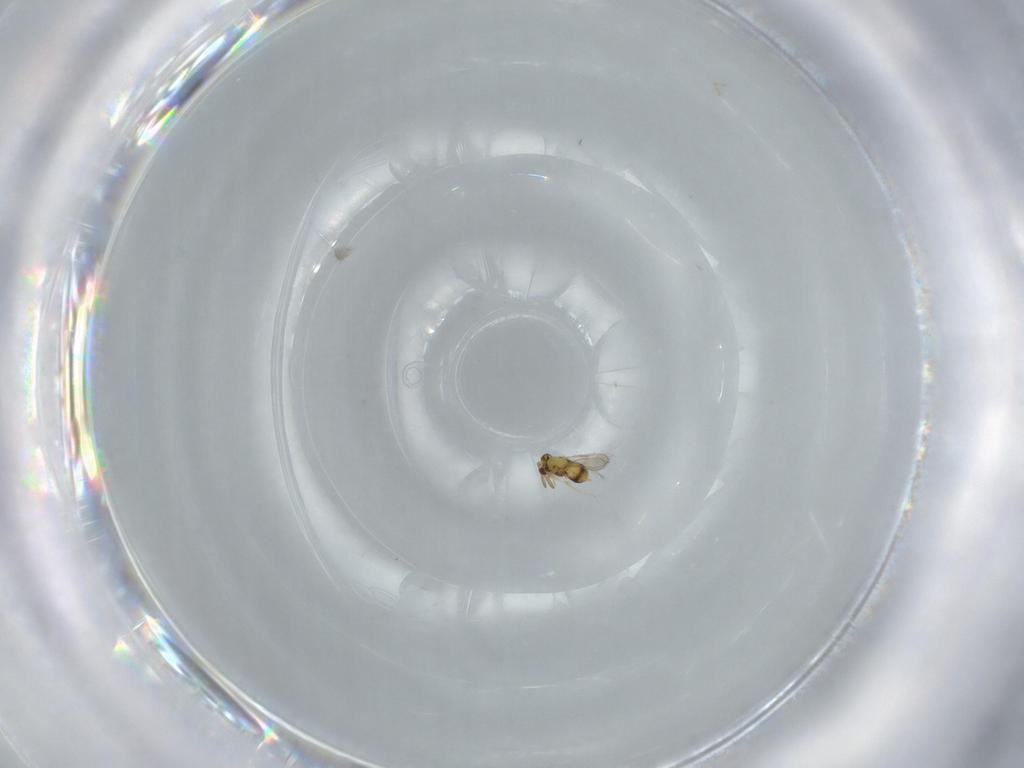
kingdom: Animalia
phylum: Arthropoda
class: Insecta
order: Hymenoptera
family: Aphelinidae
